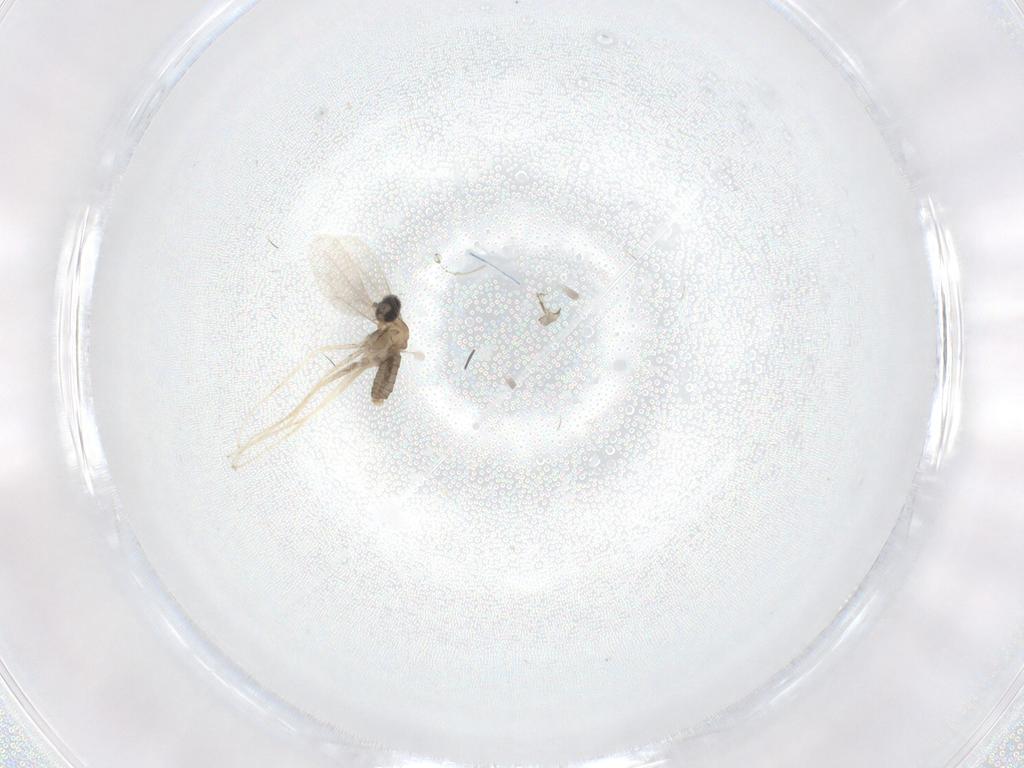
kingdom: Animalia
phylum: Arthropoda
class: Insecta
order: Diptera
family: Cecidomyiidae
